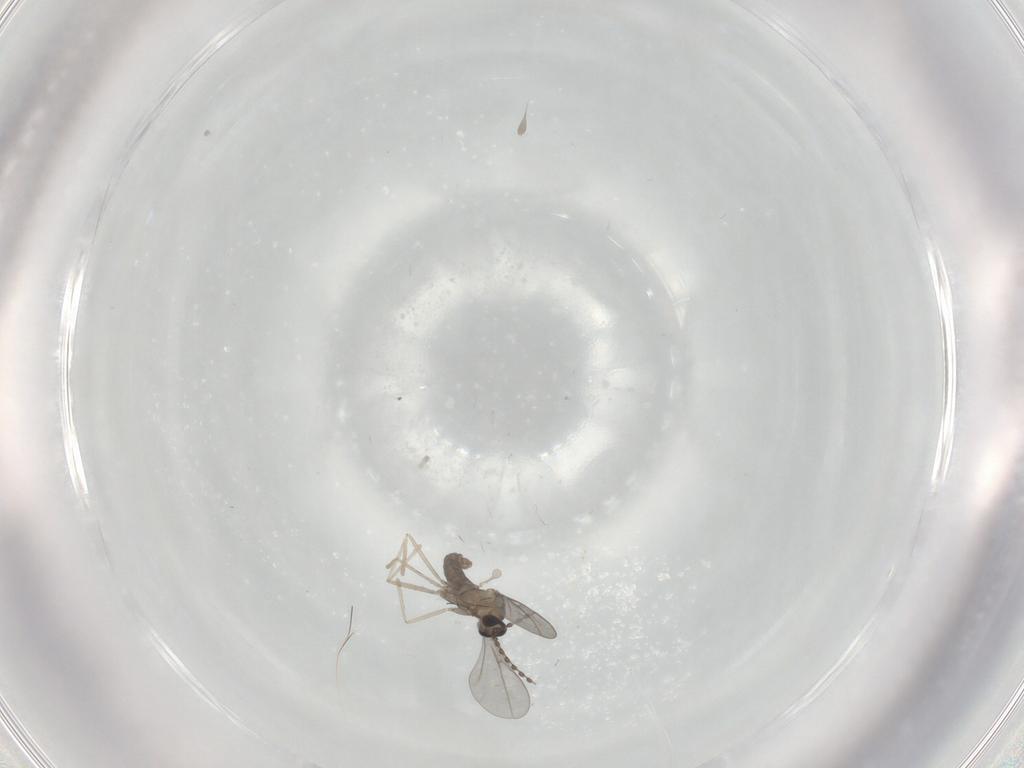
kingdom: Animalia
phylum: Arthropoda
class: Insecta
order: Diptera
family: Cecidomyiidae
